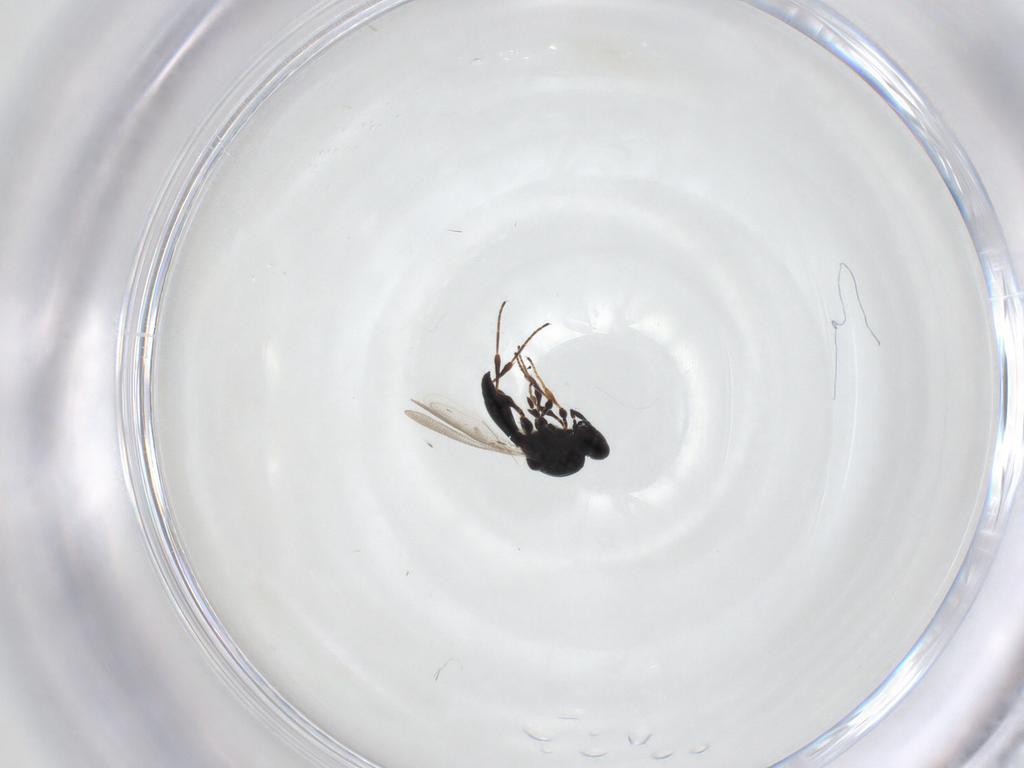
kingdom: Animalia
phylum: Arthropoda
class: Insecta
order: Hymenoptera
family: Platygastridae
